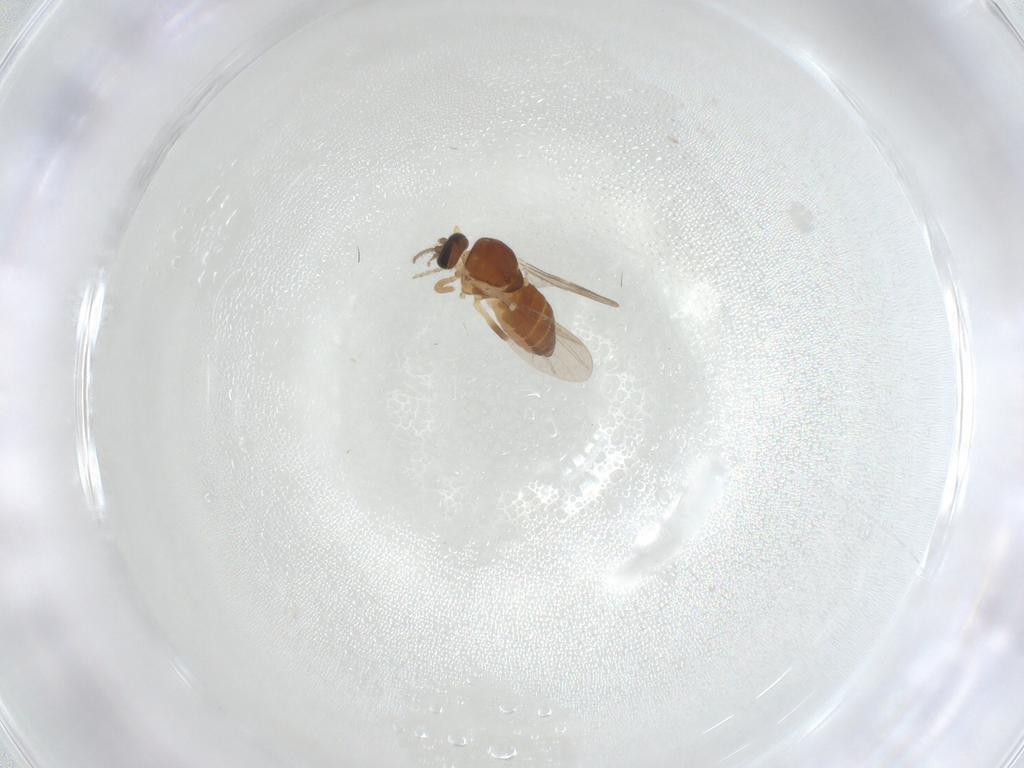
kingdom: Animalia
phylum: Arthropoda
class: Insecta
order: Diptera
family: Ceratopogonidae
